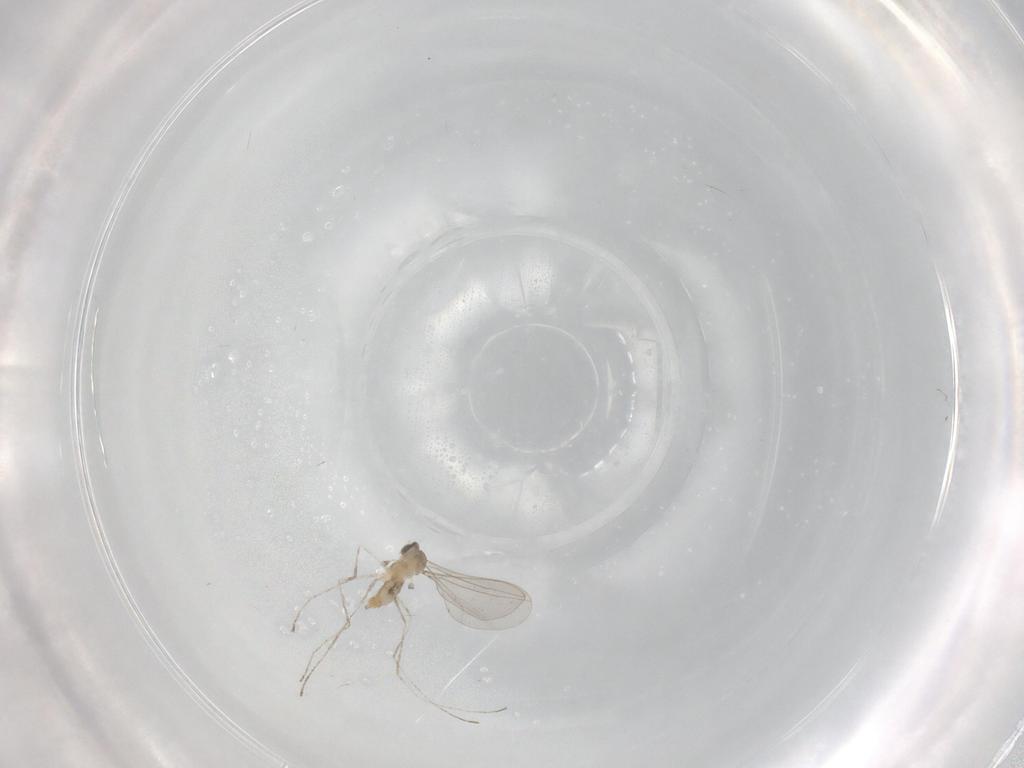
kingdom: Animalia
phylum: Arthropoda
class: Insecta
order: Diptera
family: Cecidomyiidae
